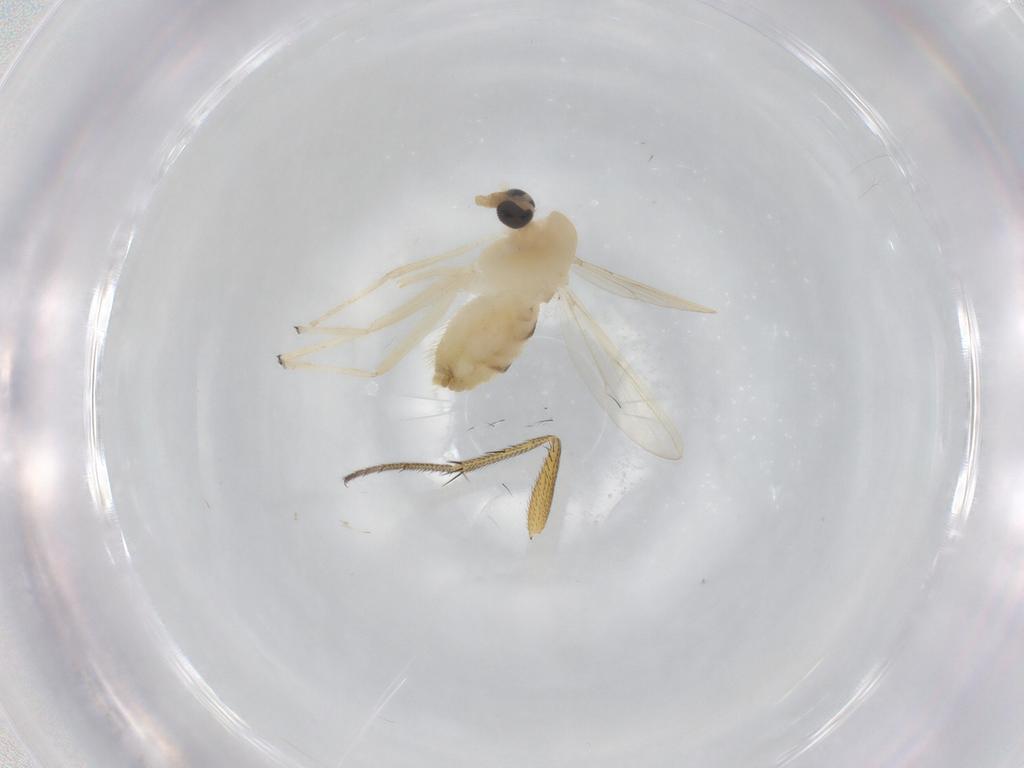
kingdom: Animalia
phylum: Arthropoda
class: Insecta
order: Diptera
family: Chironomidae
